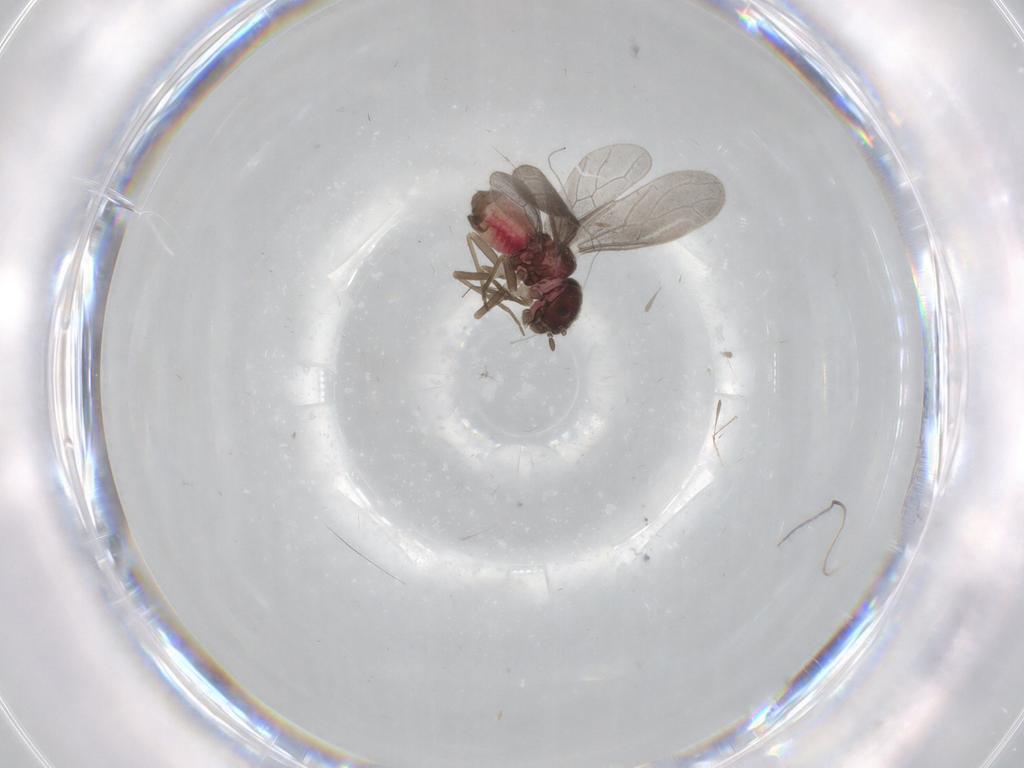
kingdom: Animalia
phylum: Arthropoda
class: Insecta
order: Psocodea
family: Archipsocidae
